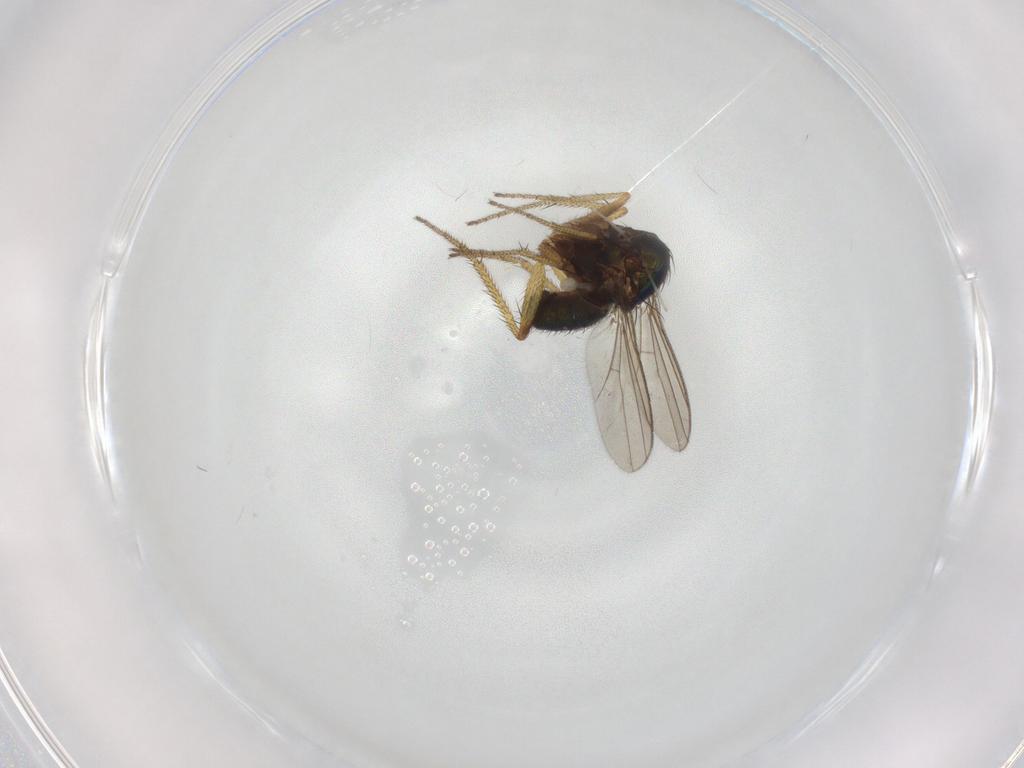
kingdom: Animalia
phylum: Arthropoda
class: Insecta
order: Diptera
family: Dolichopodidae
